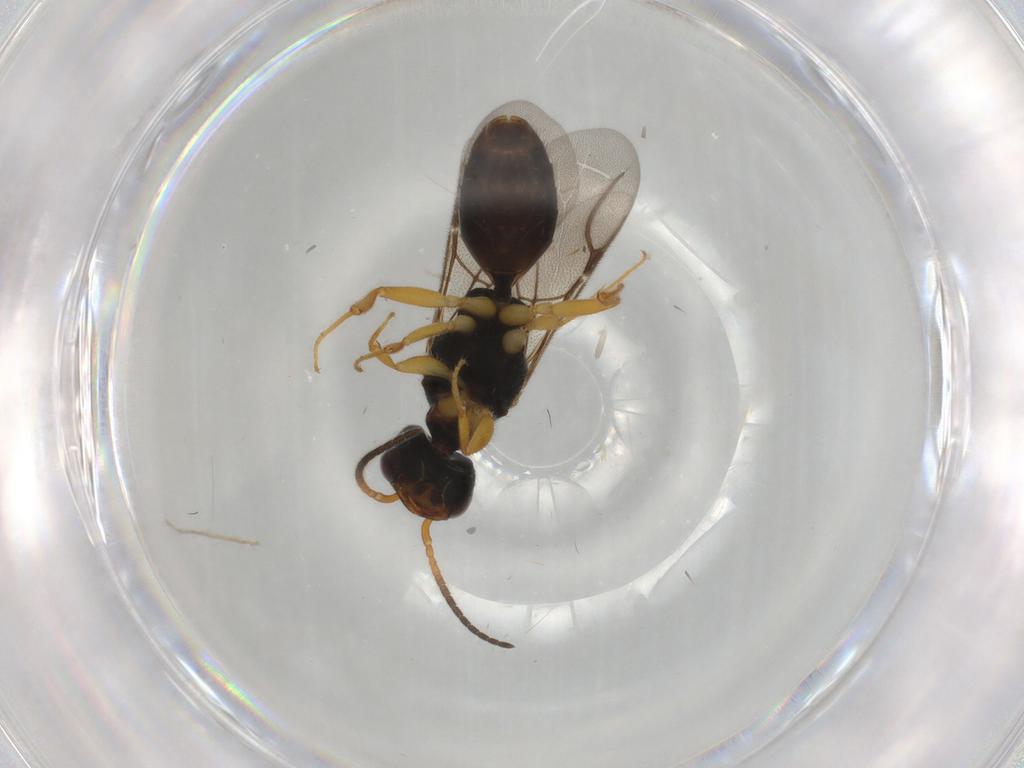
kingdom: Animalia
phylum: Arthropoda
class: Insecta
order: Hymenoptera
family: Bethylidae
